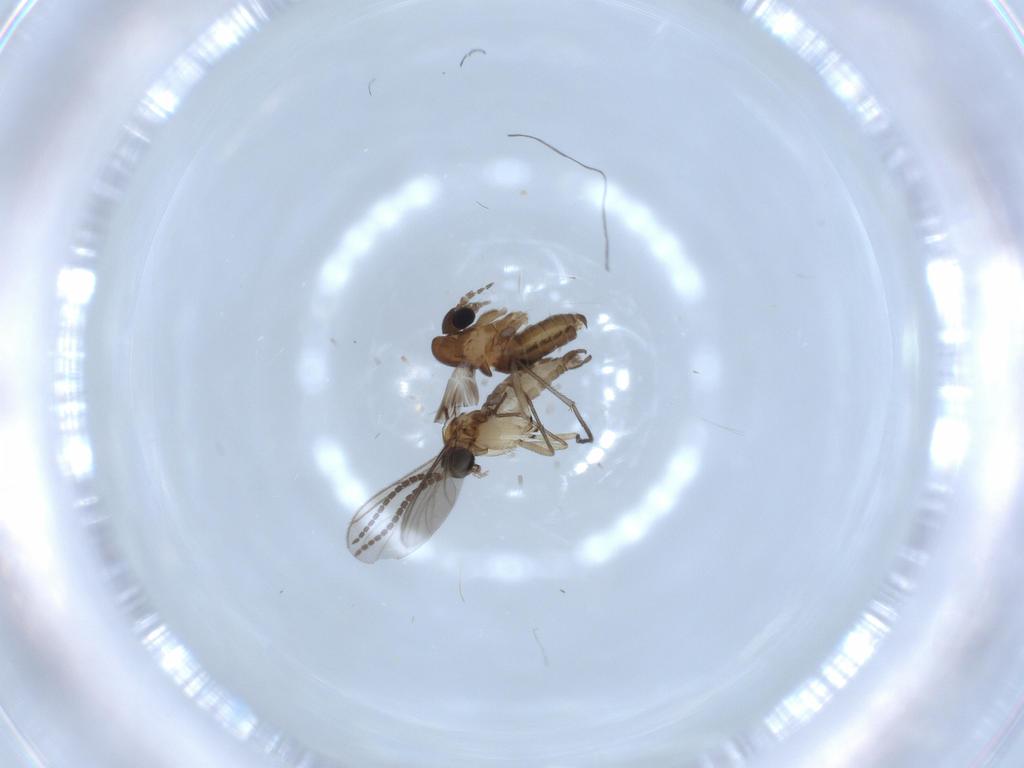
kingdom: Animalia
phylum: Arthropoda
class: Insecta
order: Diptera
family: Sciaridae
